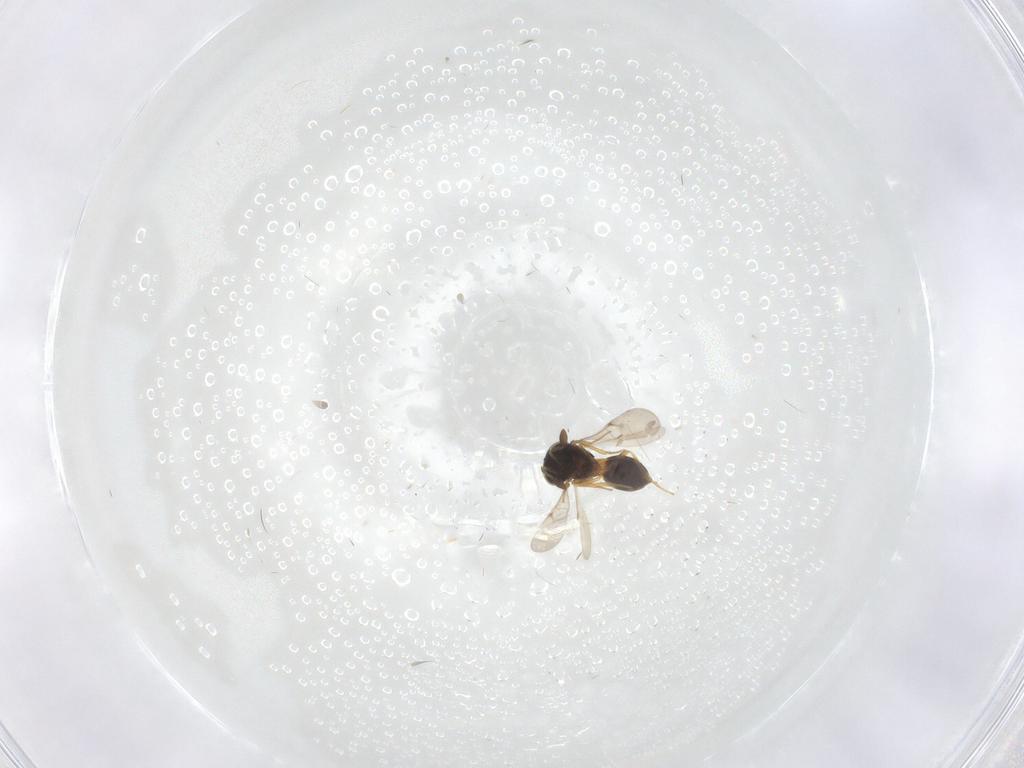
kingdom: Animalia
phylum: Arthropoda
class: Insecta
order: Hymenoptera
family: Scelionidae
